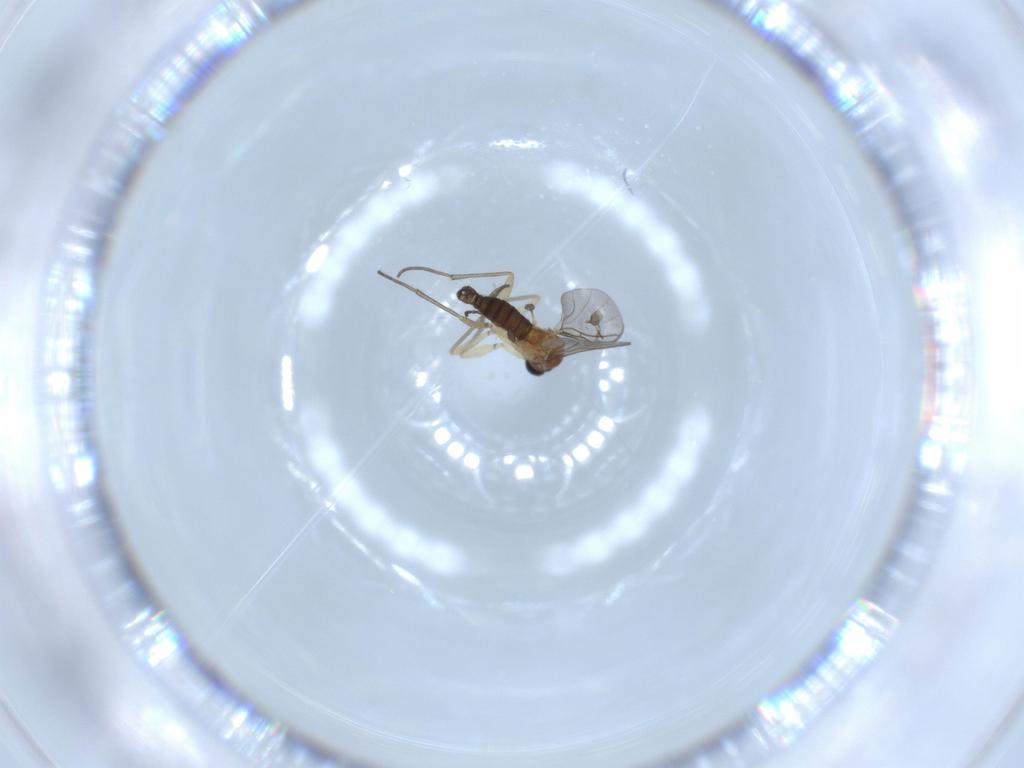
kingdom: Animalia
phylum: Arthropoda
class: Insecta
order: Diptera
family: Sciaridae
